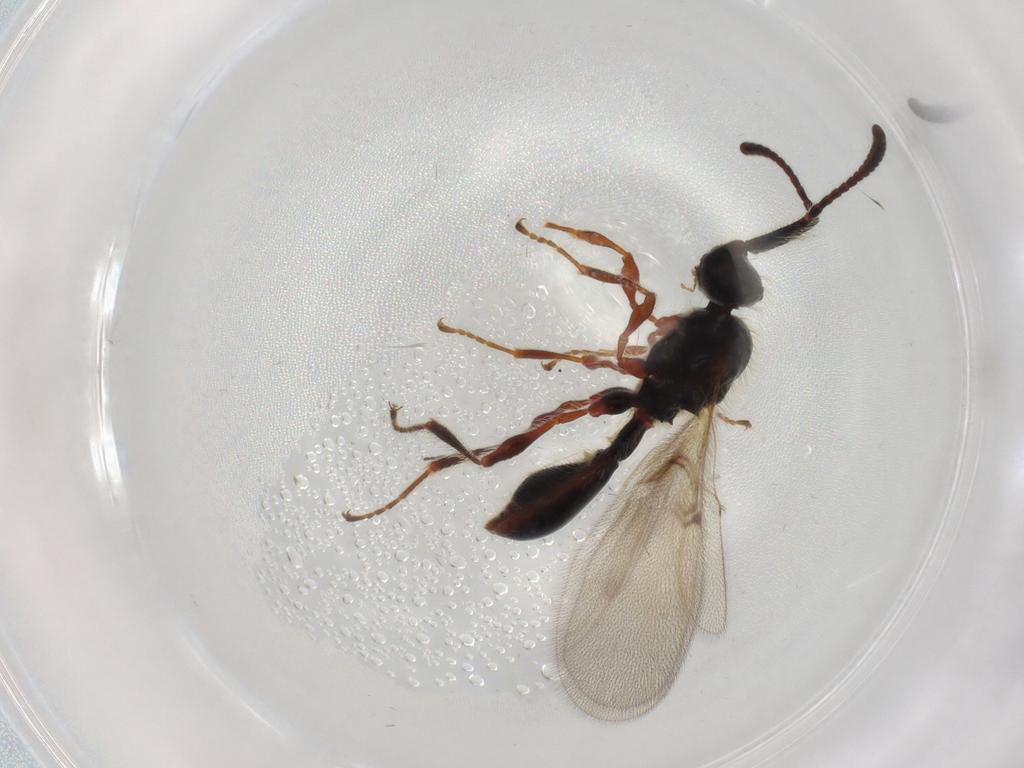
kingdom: Animalia
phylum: Arthropoda
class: Insecta
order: Hymenoptera
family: Diapriidae
